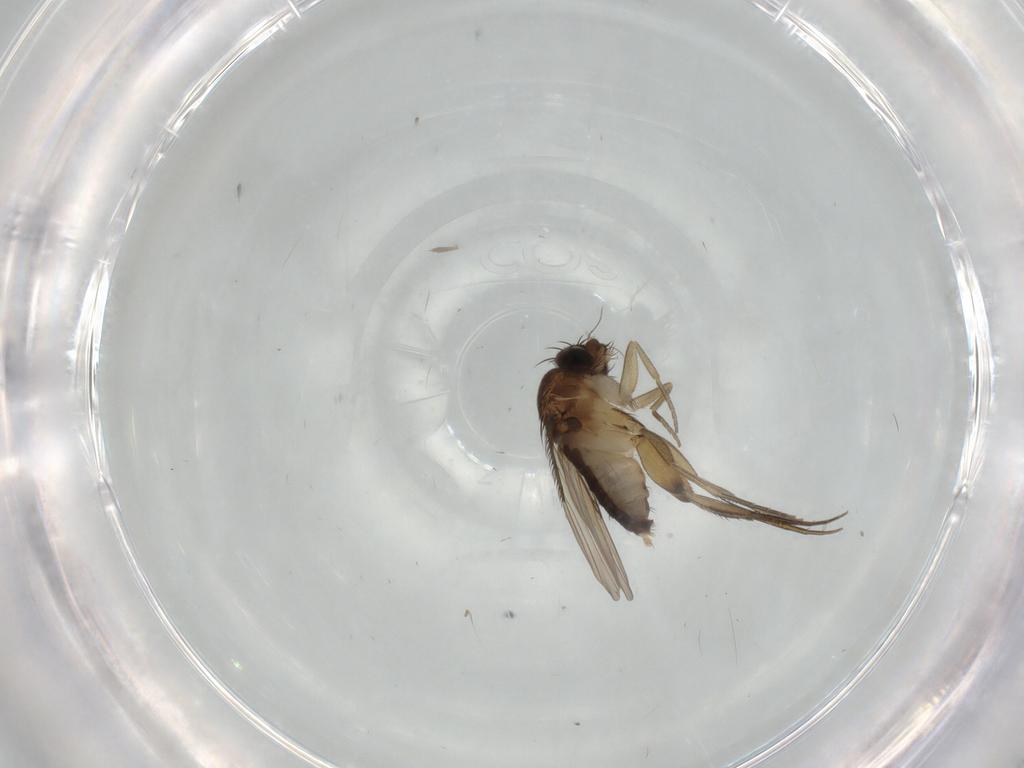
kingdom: Animalia
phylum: Arthropoda
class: Insecta
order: Diptera
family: Phoridae
